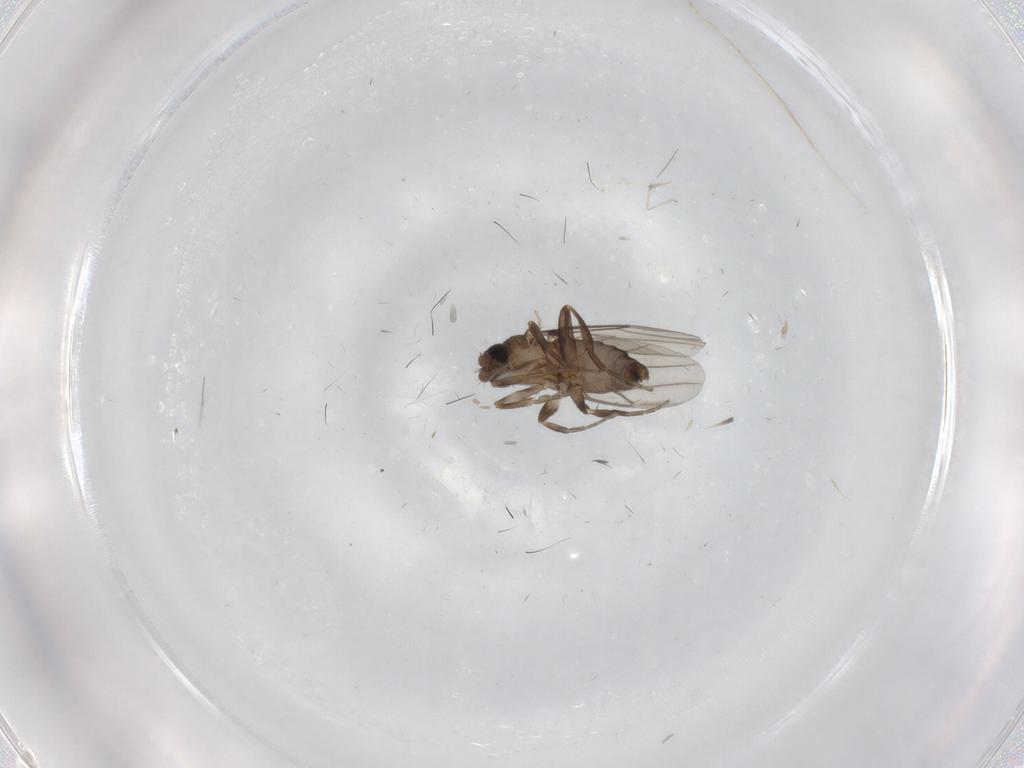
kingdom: Animalia
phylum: Arthropoda
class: Insecta
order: Diptera
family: Phoridae
